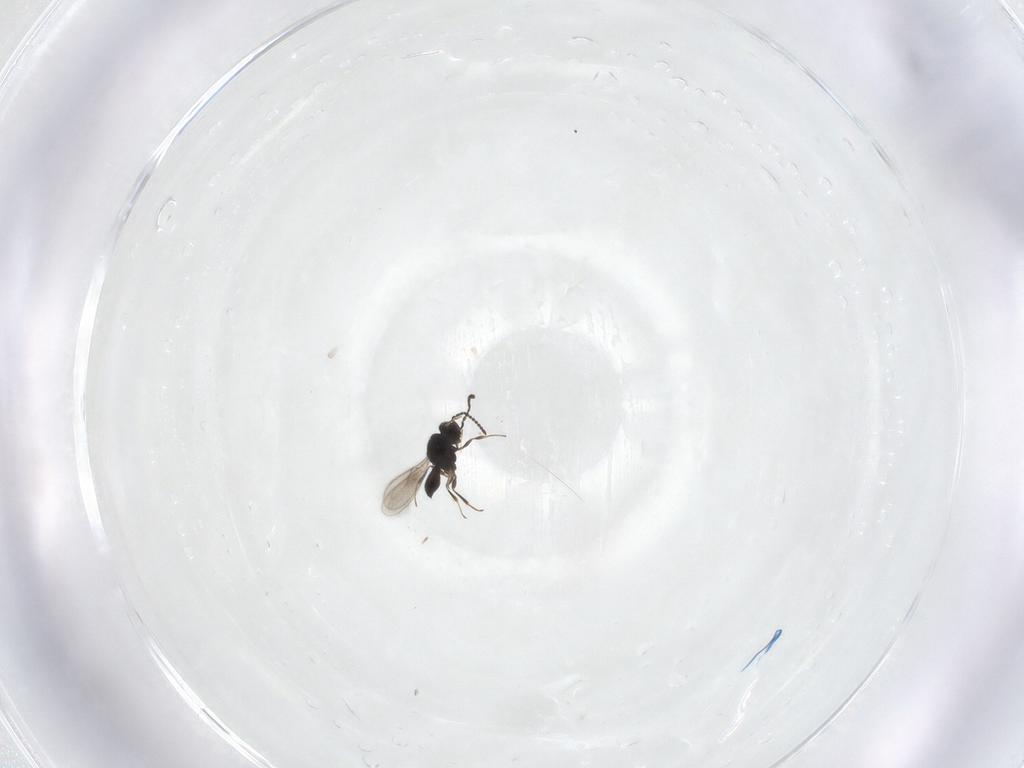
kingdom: Animalia
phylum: Arthropoda
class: Insecta
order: Hymenoptera
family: Scelionidae
